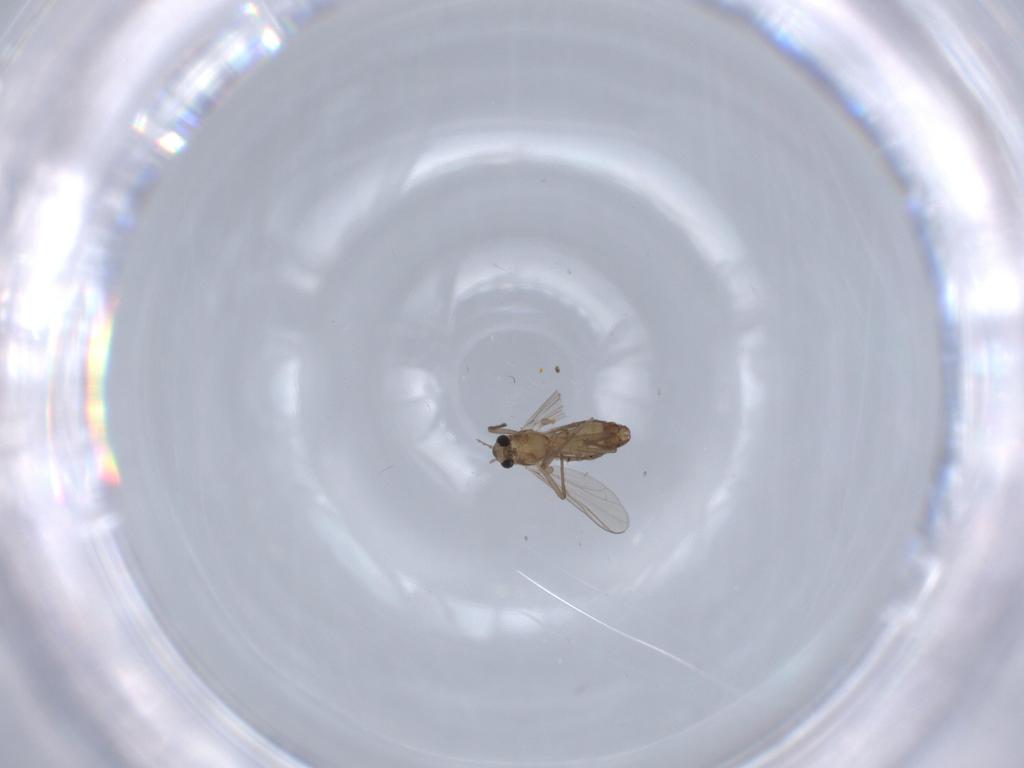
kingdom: Animalia
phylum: Arthropoda
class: Insecta
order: Diptera
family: Chironomidae
